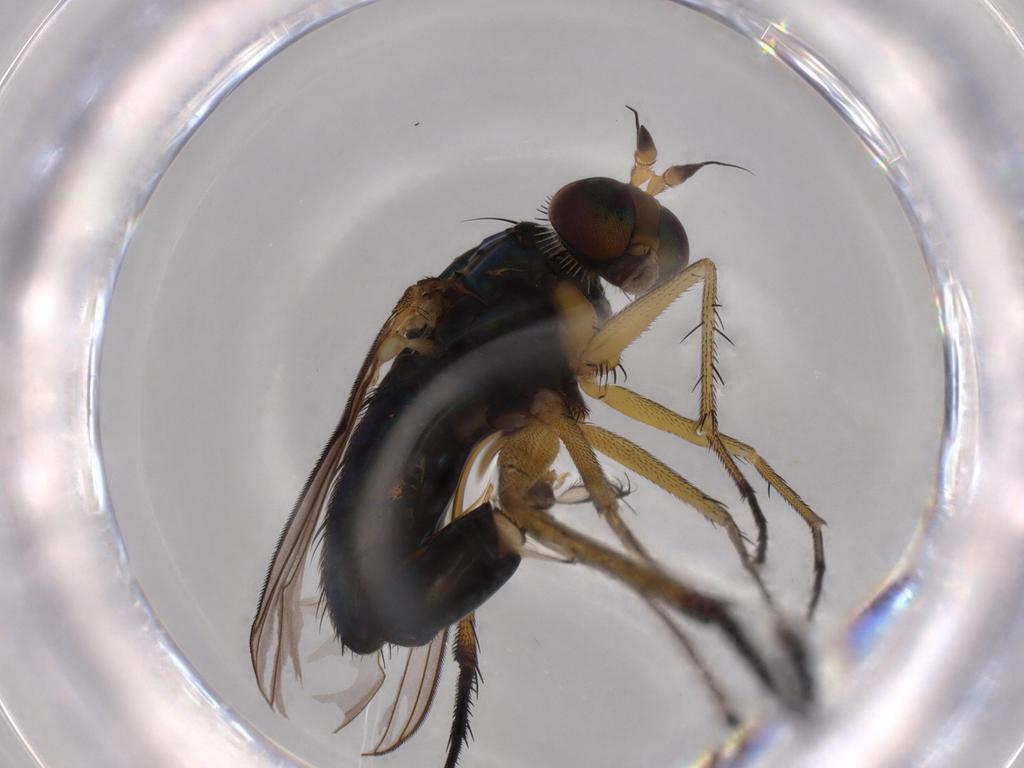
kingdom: Animalia
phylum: Arthropoda
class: Insecta
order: Diptera
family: Dolichopodidae
